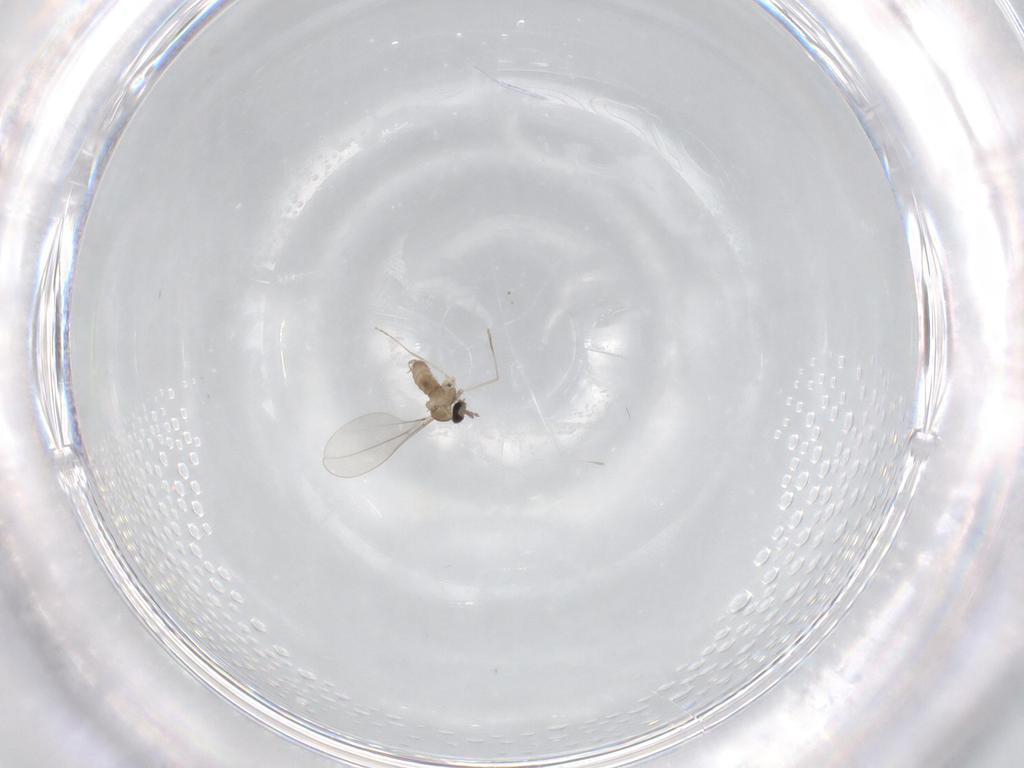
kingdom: Animalia
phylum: Arthropoda
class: Insecta
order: Diptera
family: Cecidomyiidae
